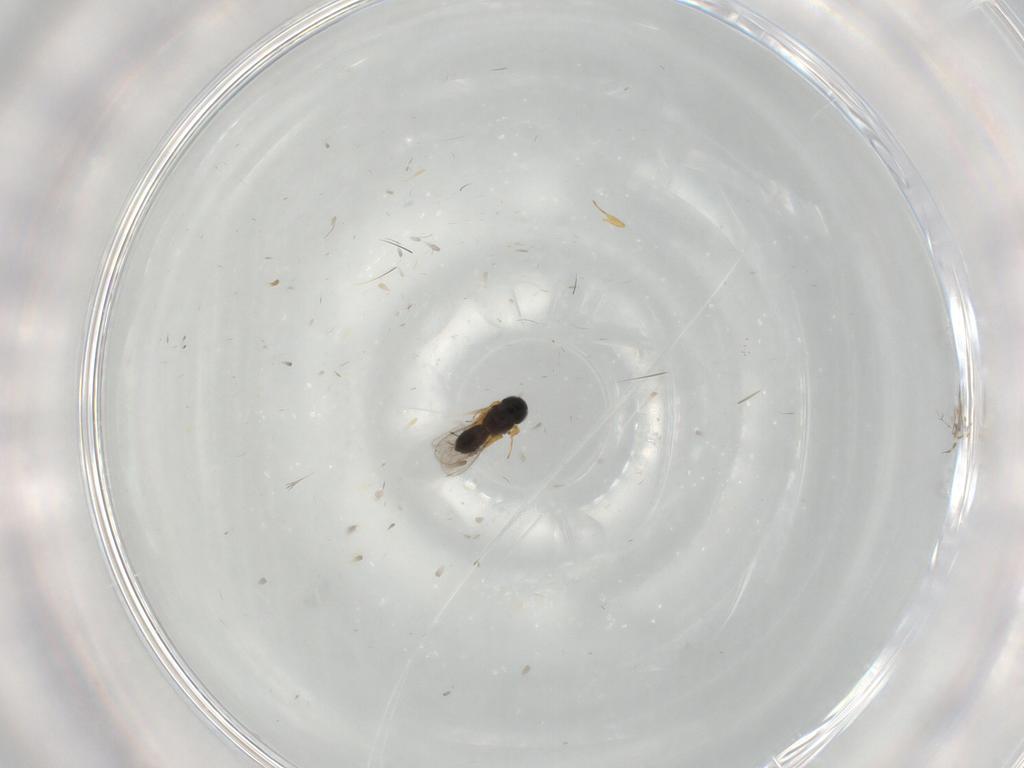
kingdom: Animalia
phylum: Arthropoda
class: Insecta
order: Hymenoptera
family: Scelionidae
